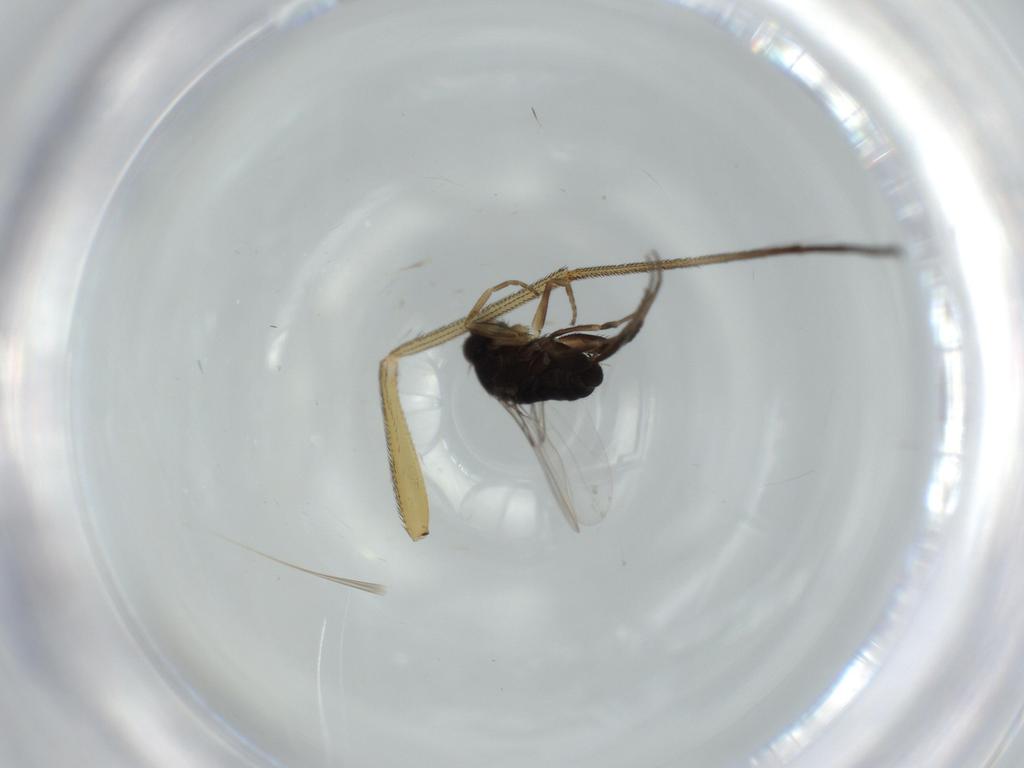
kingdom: Animalia
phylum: Arthropoda
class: Insecta
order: Diptera
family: Phoridae
